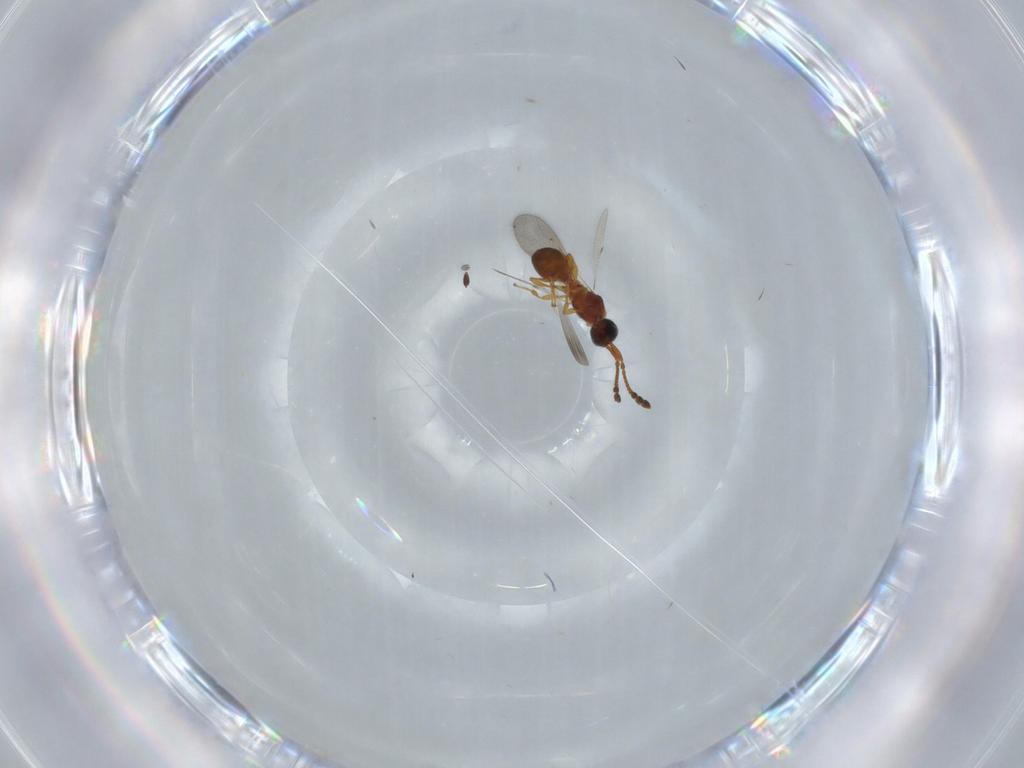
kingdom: Animalia
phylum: Arthropoda
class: Insecta
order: Hymenoptera
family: Diapriidae
